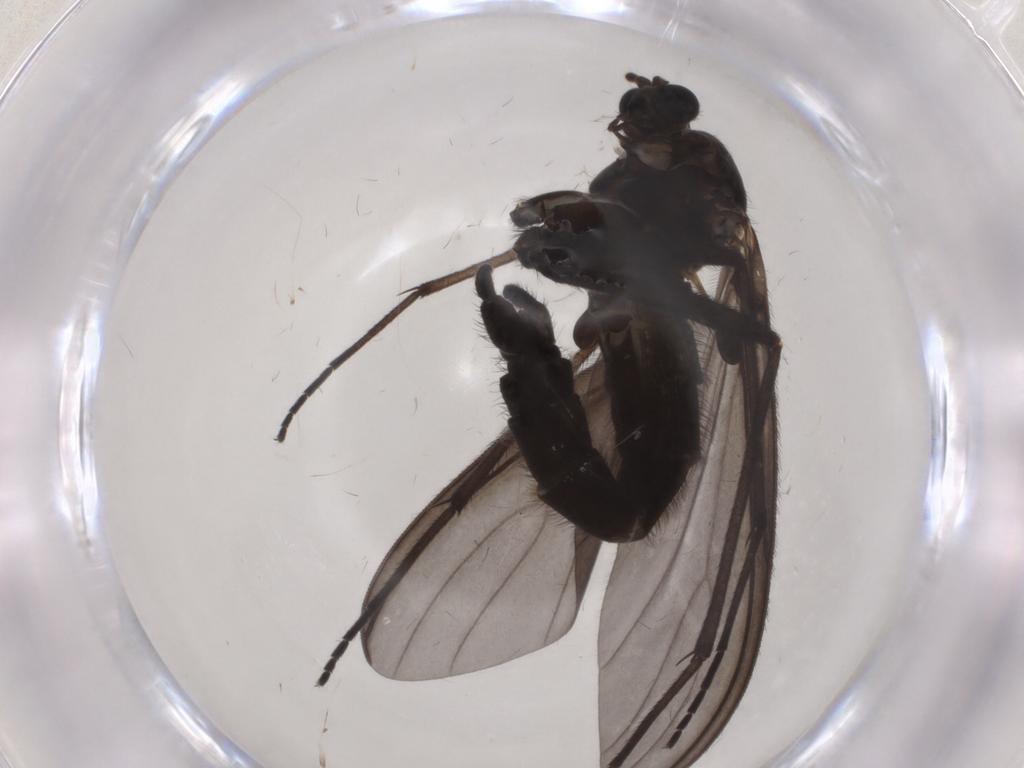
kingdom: Animalia
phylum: Arthropoda
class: Insecta
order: Diptera
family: Cecidomyiidae
